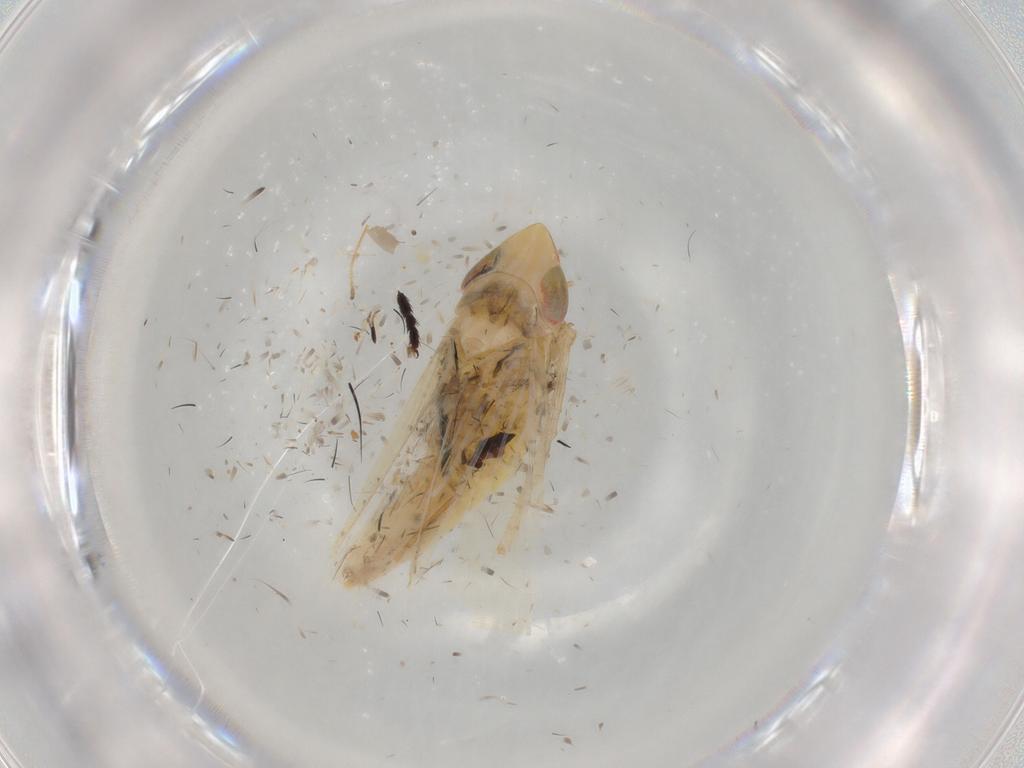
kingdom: Animalia
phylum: Arthropoda
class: Insecta
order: Hemiptera
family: Cicadellidae
